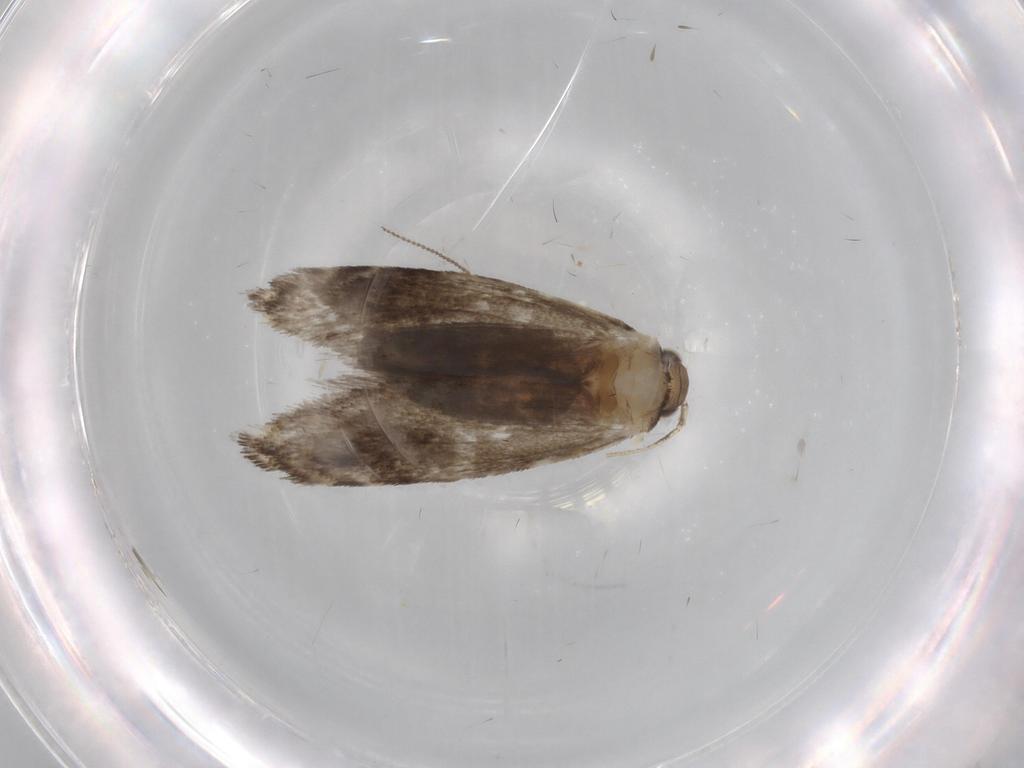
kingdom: Animalia
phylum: Arthropoda
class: Insecta
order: Lepidoptera
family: Tineidae
